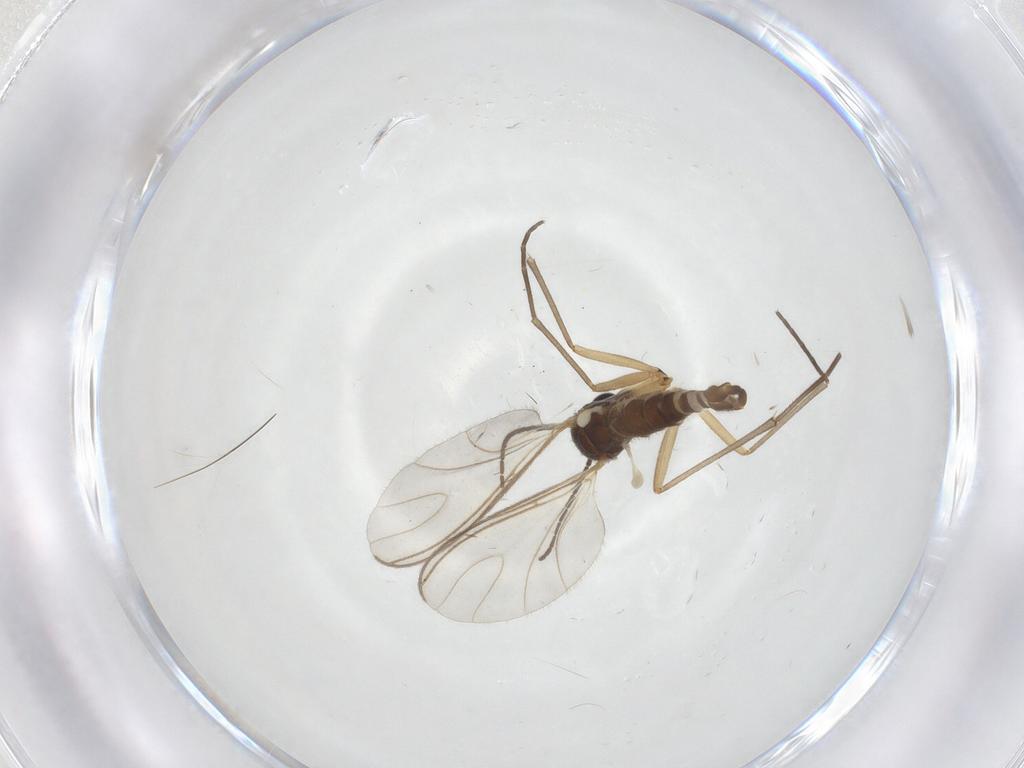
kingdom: Animalia
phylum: Arthropoda
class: Insecta
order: Diptera
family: Sciaridae
